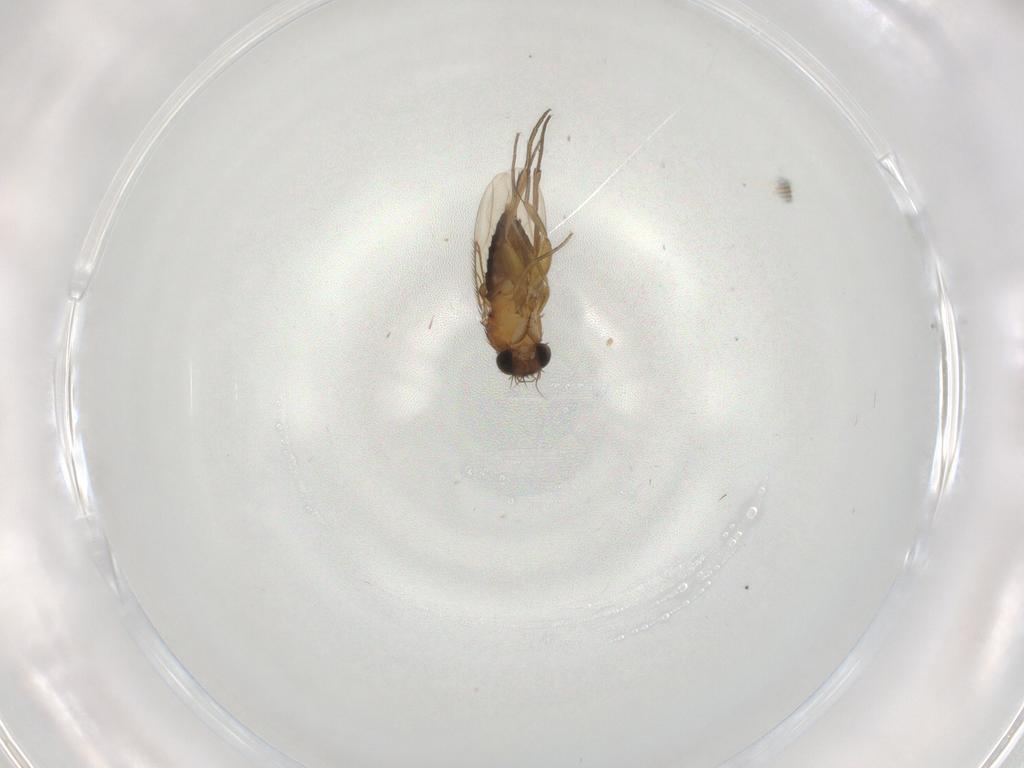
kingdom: Animalia
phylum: Arthropoda
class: Insecta
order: Diptera
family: Phoridae
